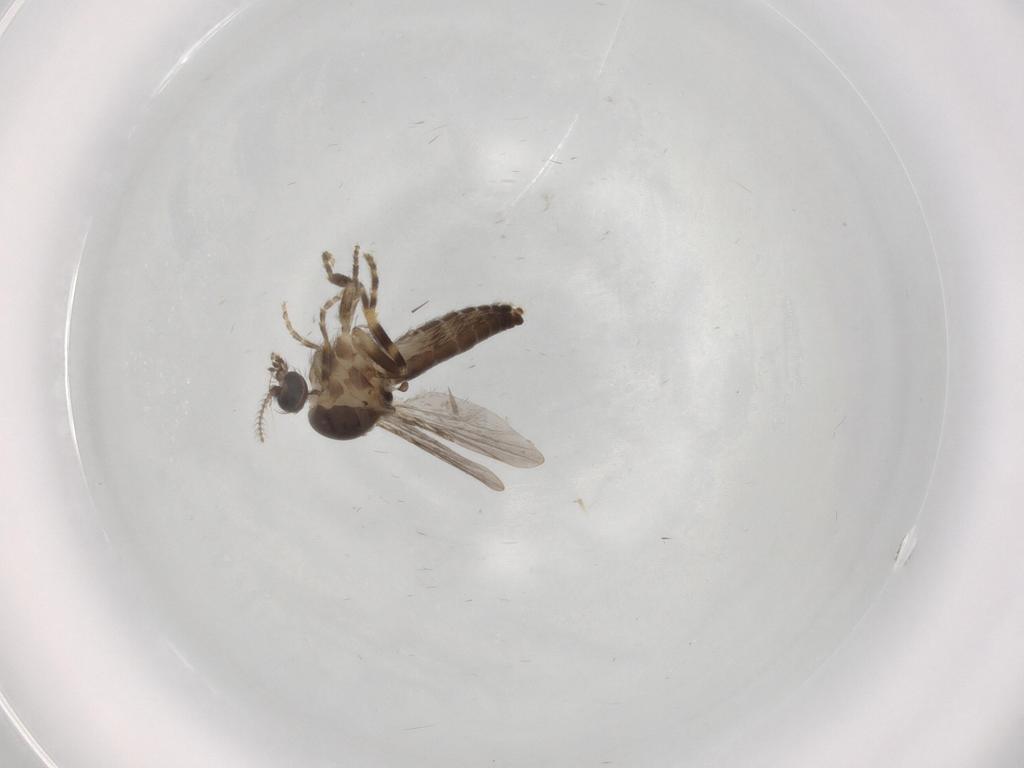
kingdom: Animalia
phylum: Arthropoda
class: Insecta
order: Diptera
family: Ceratopogonidae
